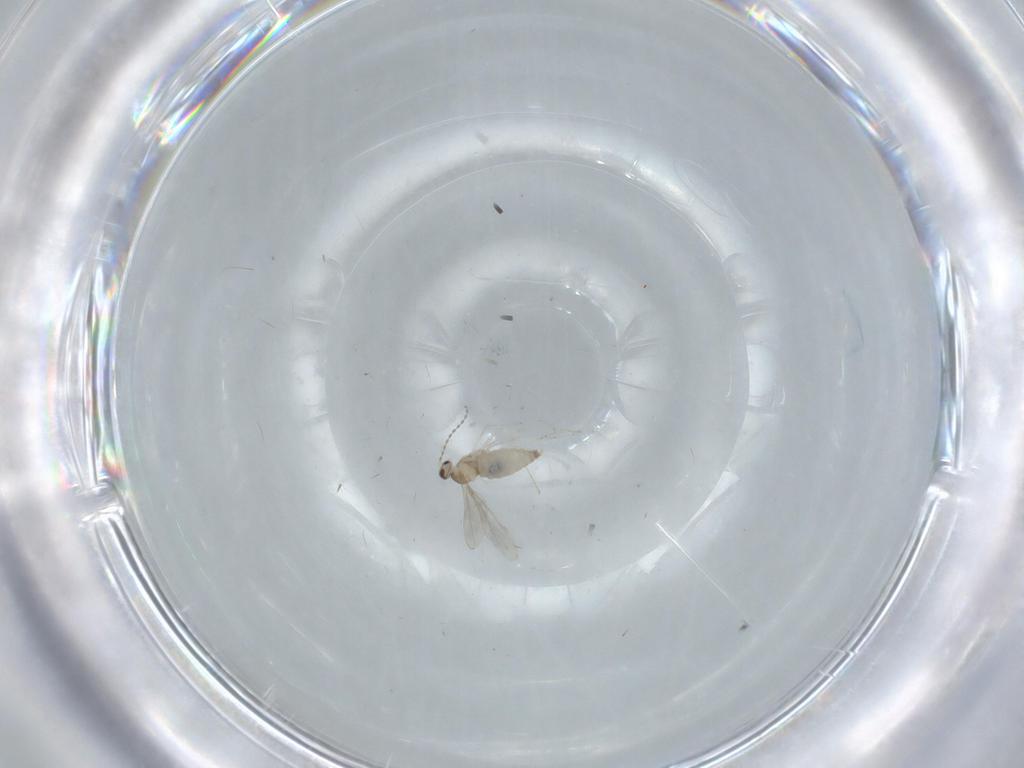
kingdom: Animalia
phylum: Arthropoda
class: Insecta
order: Diptera
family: Cecidomyiidae
